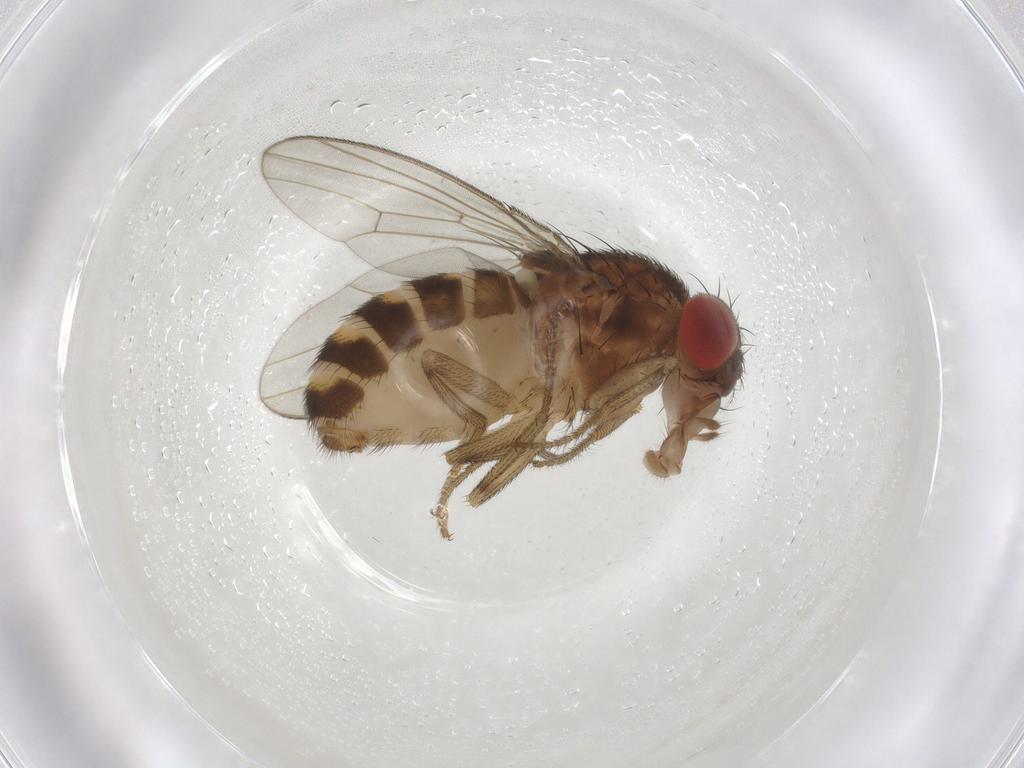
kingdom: Animalia
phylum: Arthropoda
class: Insecta
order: Diptera
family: Drosophilidae
